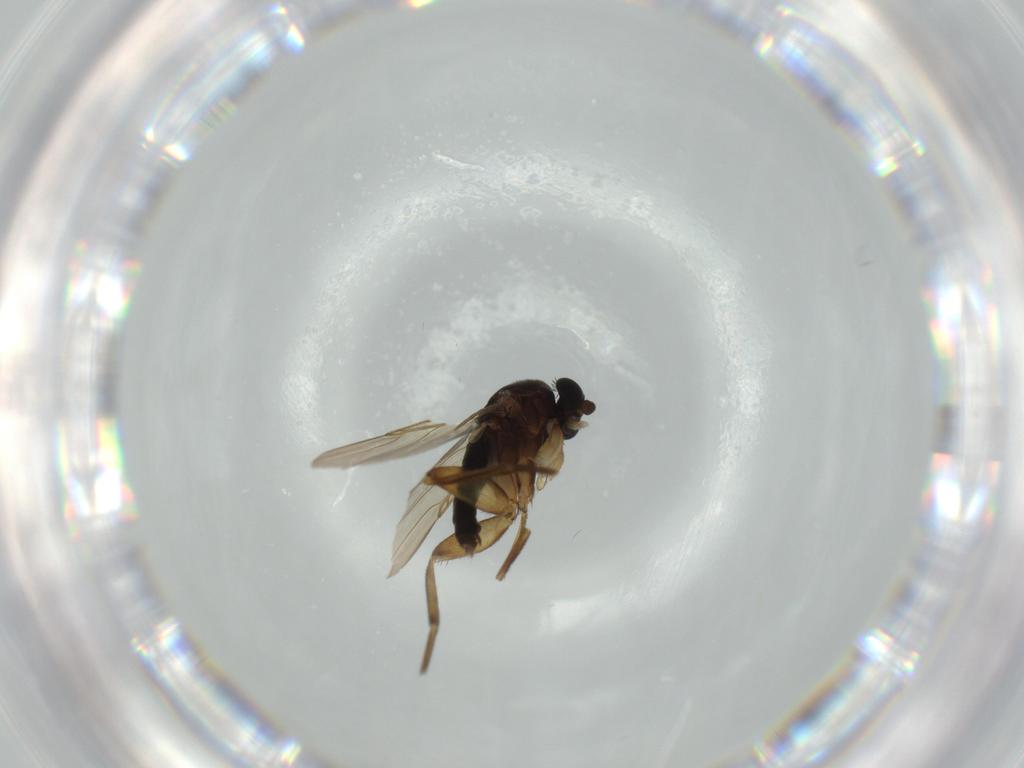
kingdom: Animalia
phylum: Arthropoda
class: Insecta
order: Diptera
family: Phoridae
